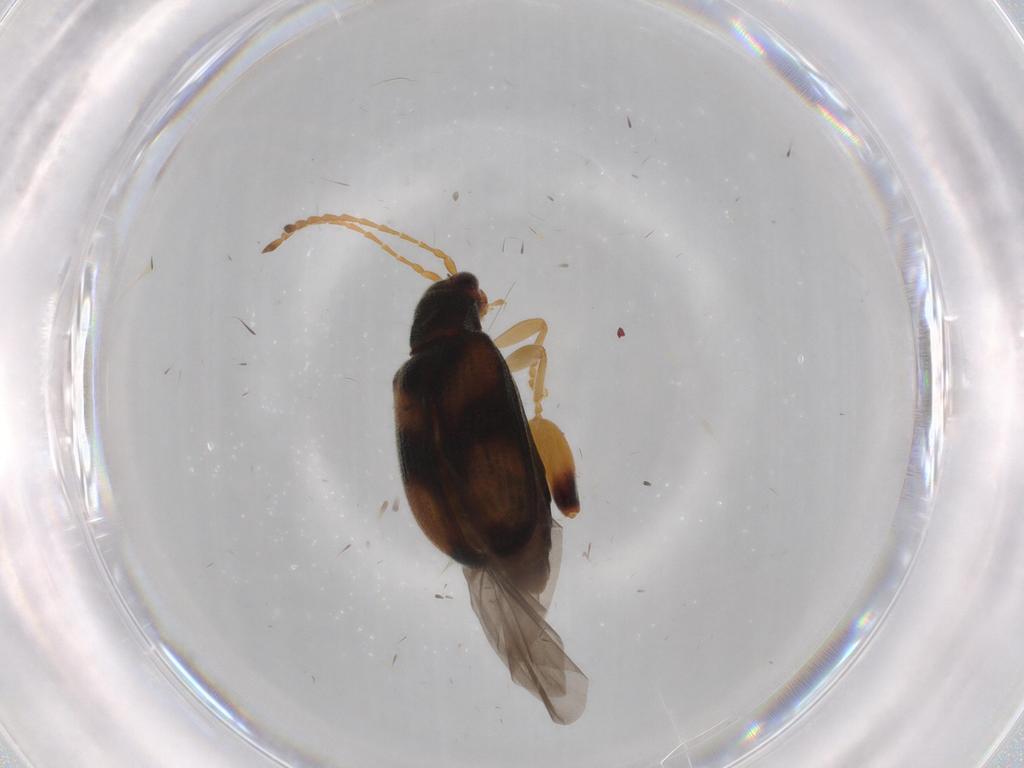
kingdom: Animalia
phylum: Arthropoda
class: Insecta
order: Coleoptera
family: Chrysomelidae
